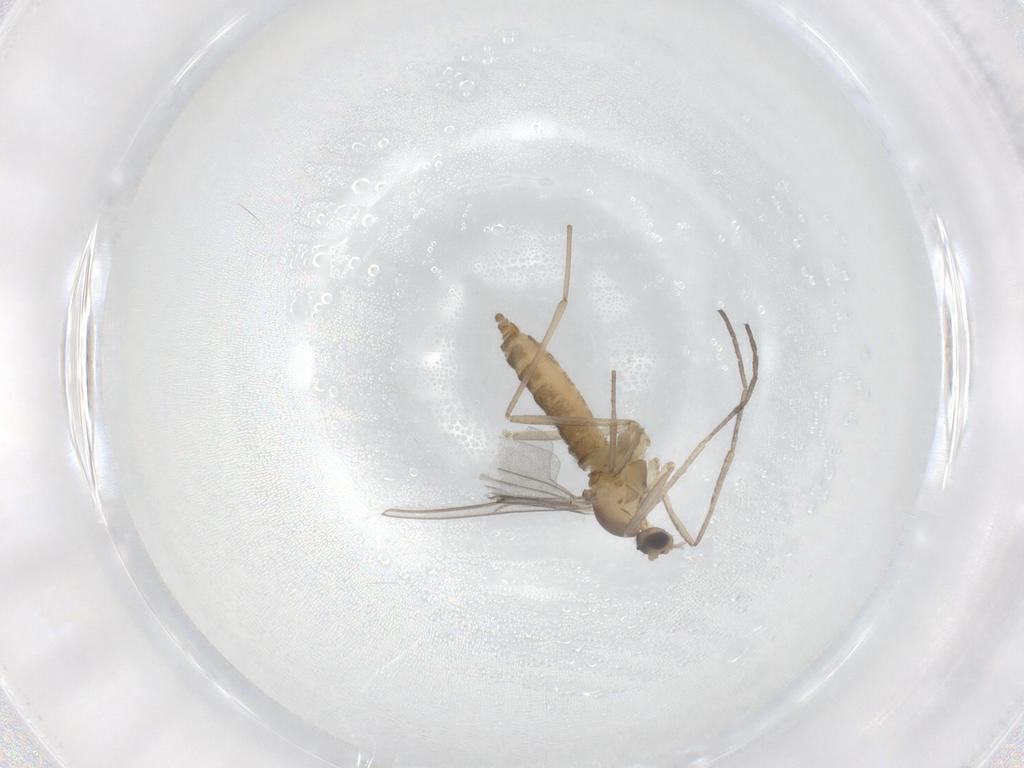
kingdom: Animalia
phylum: Arthropoda
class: Insecta
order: Diptera
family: Cecidomyiidae
